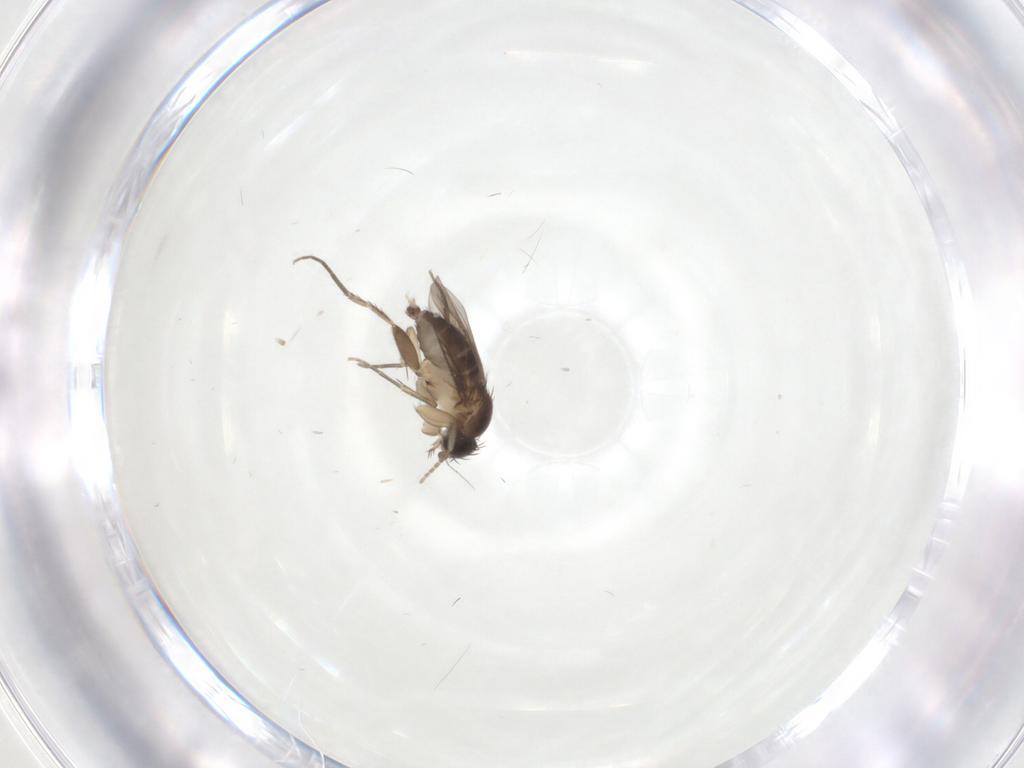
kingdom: Animalia
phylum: Arthropoda
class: Insecta
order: Diptera
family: Phoridae
